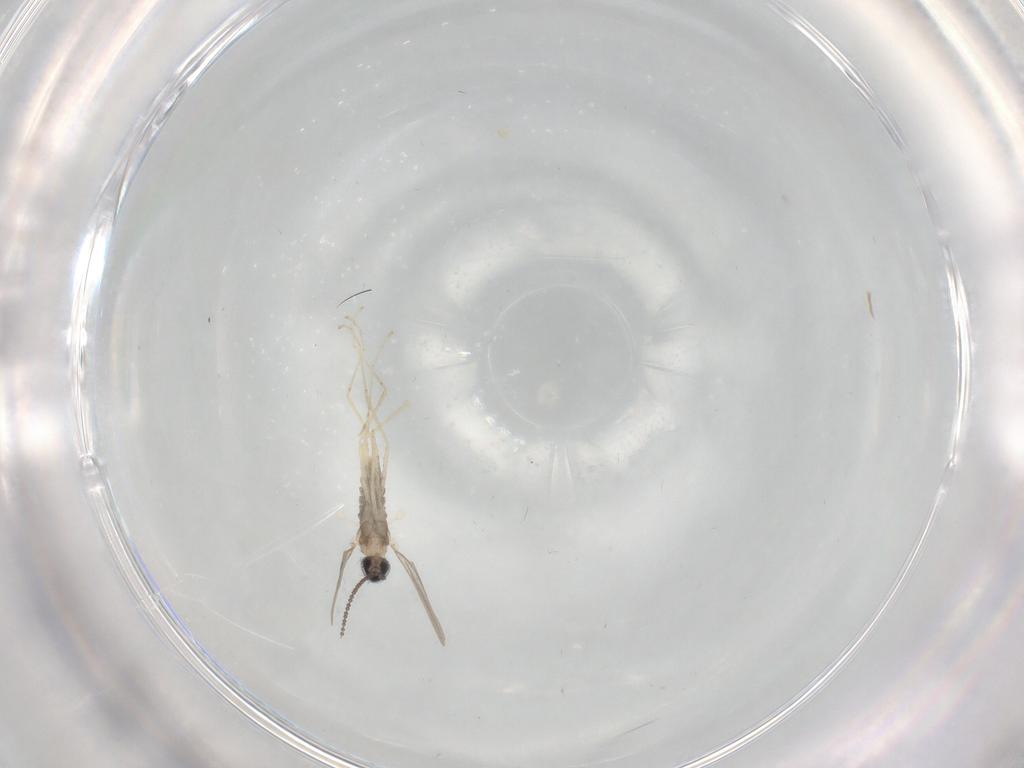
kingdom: Animalia
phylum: Arthropoda
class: Insecta
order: Diptera
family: Cecidomyiidae
